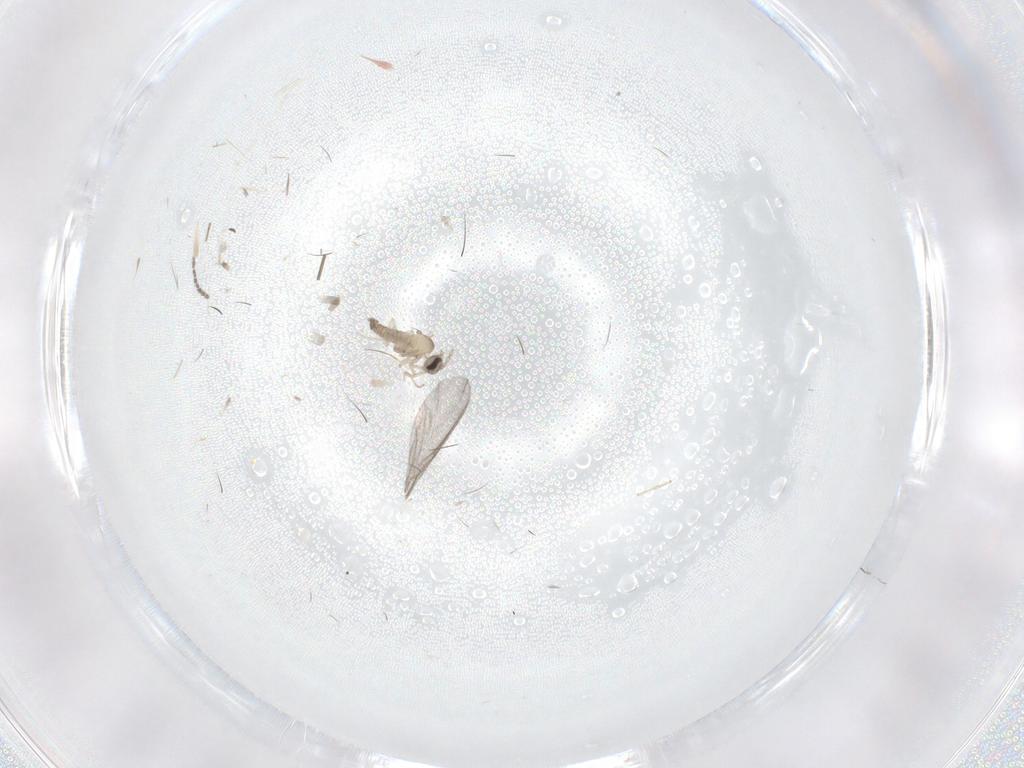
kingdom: Animalia
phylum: Arthropoda
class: Insecta
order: Diptera
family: Cecidomyiidae
